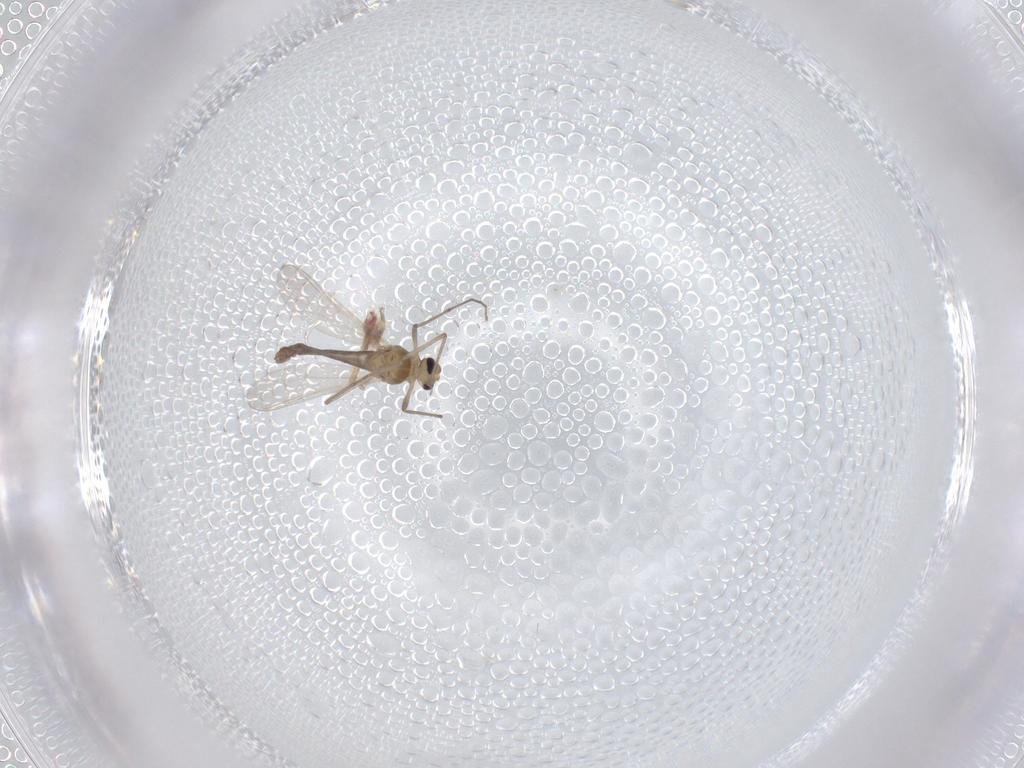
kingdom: Animalia
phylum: Arthropoda
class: Insecta
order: Diptera
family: Chironomidae
